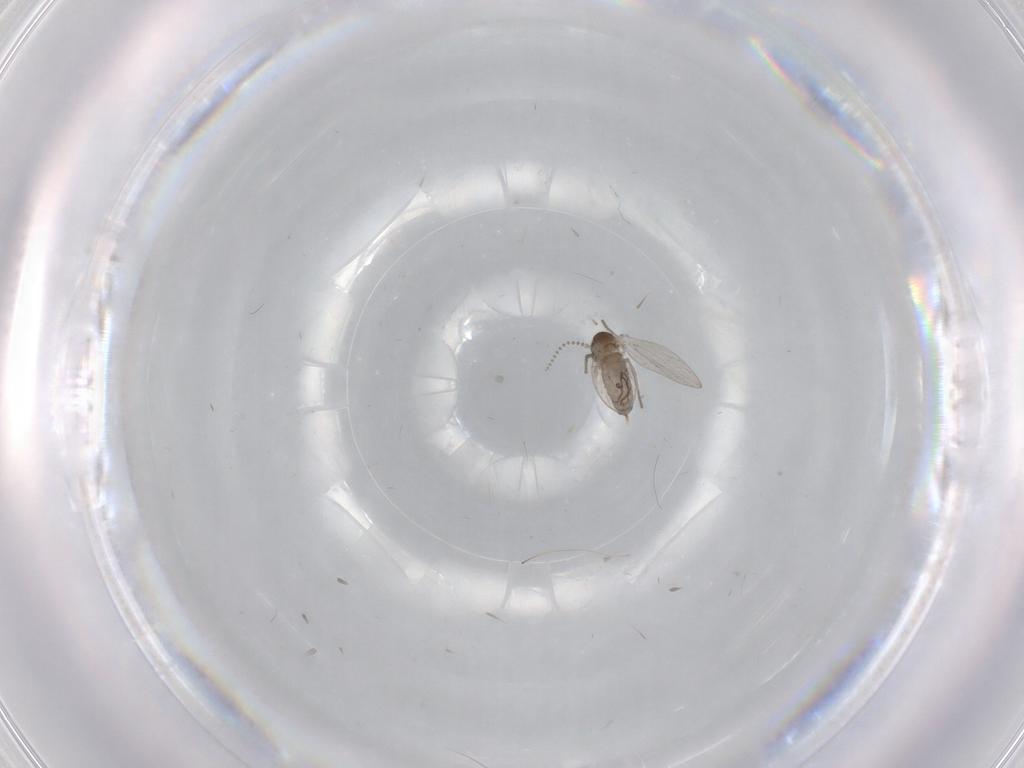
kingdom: Animalia
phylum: Arthropoda
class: Insecta
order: Diptera
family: Psychodidae
